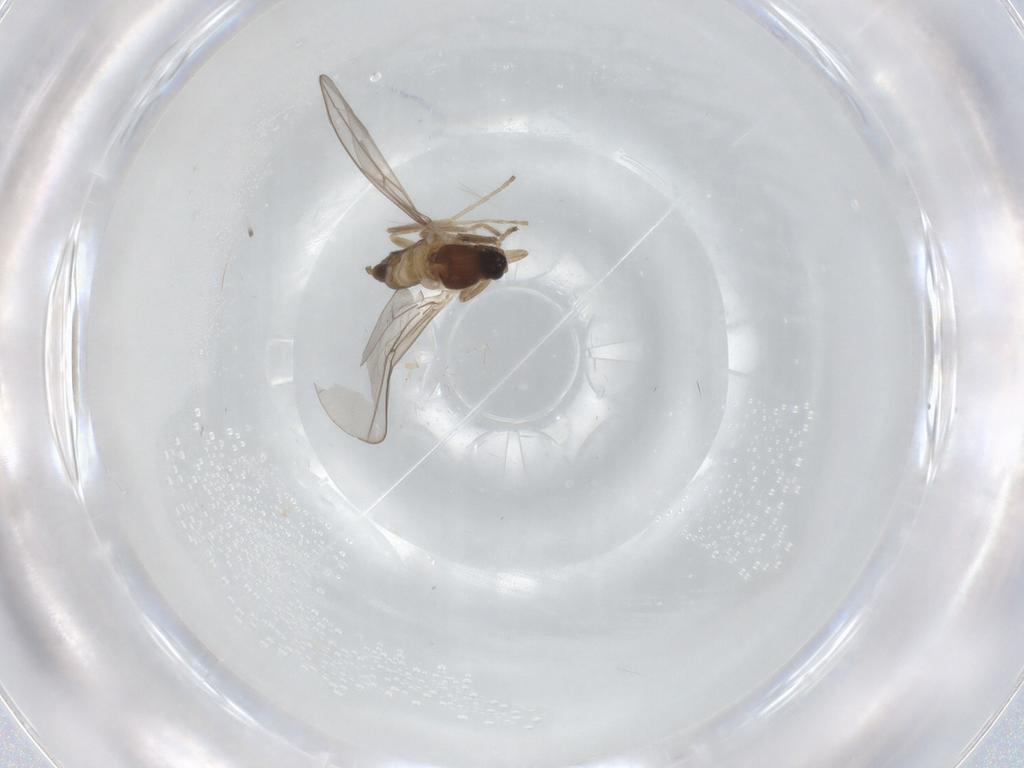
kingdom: Animalia
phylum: Arthropoda
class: Insecta
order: Diptera
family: Cecidomyiidae
